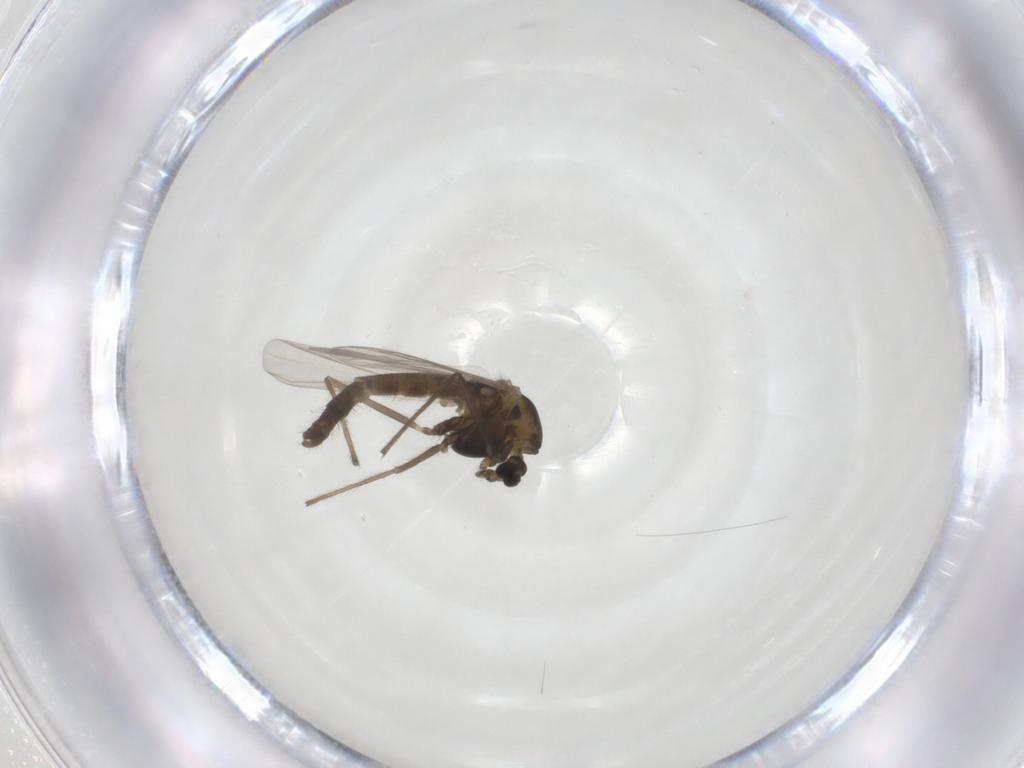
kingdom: Animalia
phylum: Arthropoda
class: Insecta
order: Diptera
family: Chironomidae
